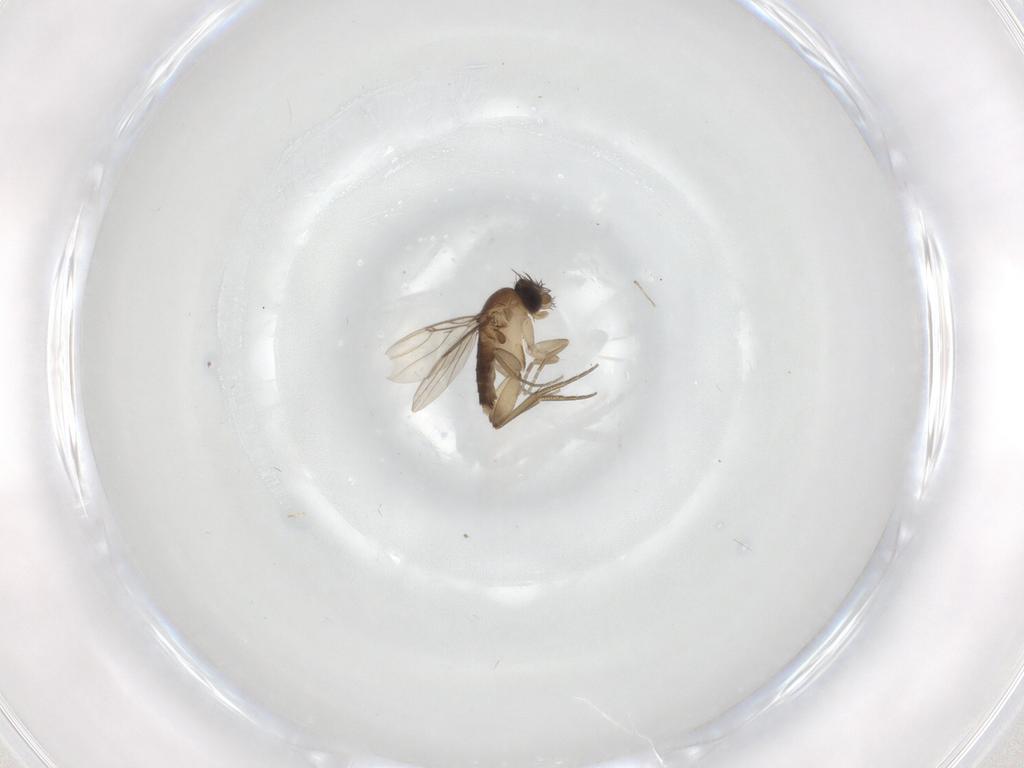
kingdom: Animalia
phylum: Arthropoda
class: Insecta
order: Diptera
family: Phoridae
